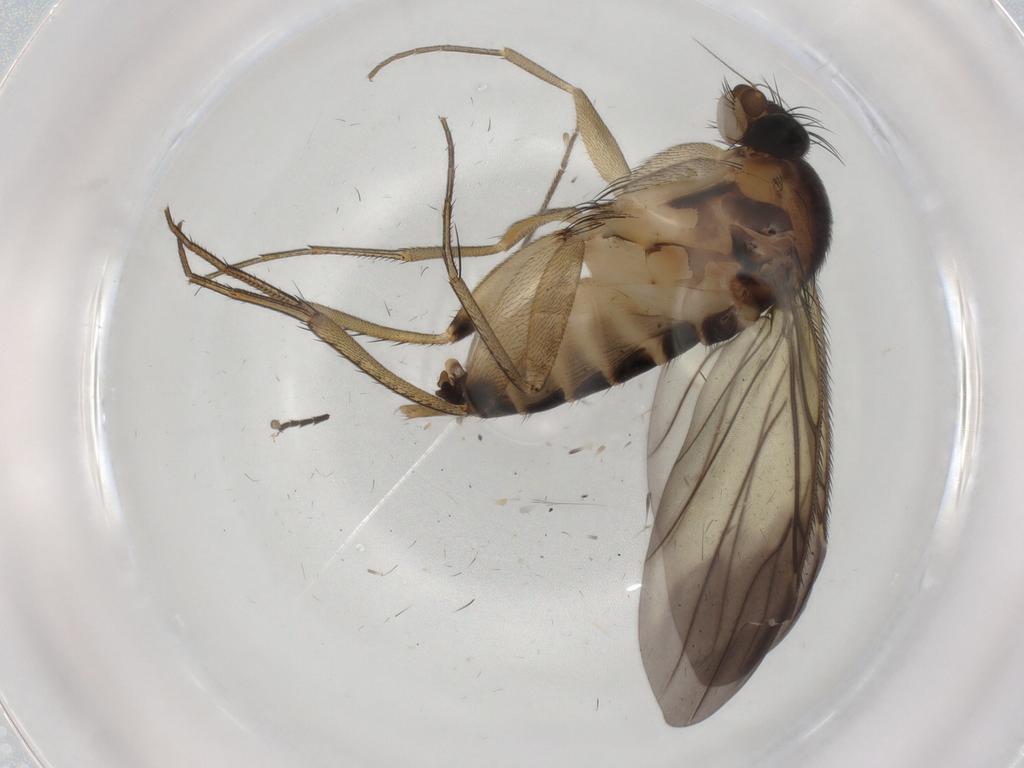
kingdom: Animalia
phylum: Arthropoda
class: Insecta
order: Diptera
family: Phoridae
